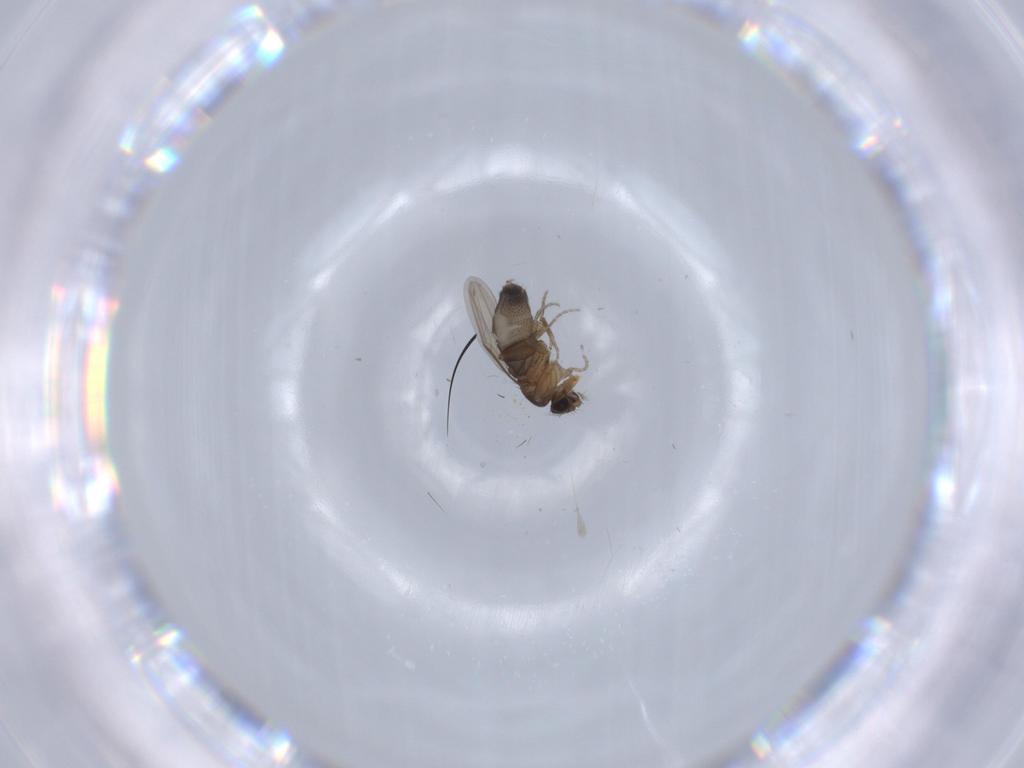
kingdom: Animalia
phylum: Arthropoda
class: Insecta
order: Diptera
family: Phoridae
